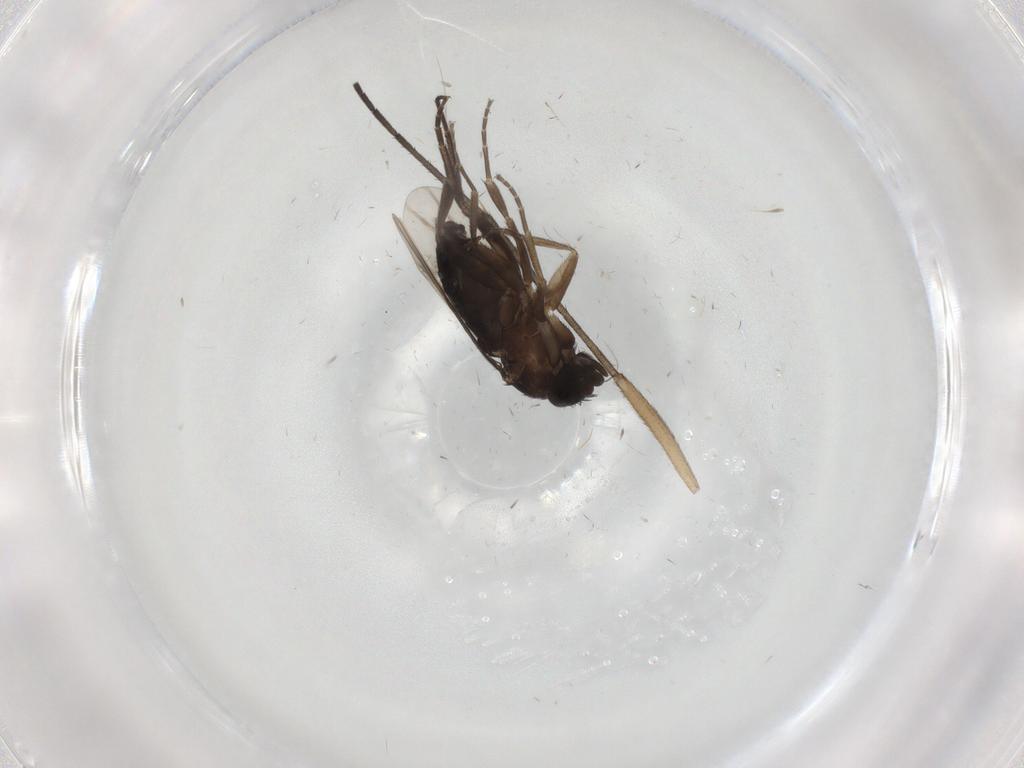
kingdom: Animalia
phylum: Arthropoda
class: Insecta
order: Diptera
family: Phoridae
